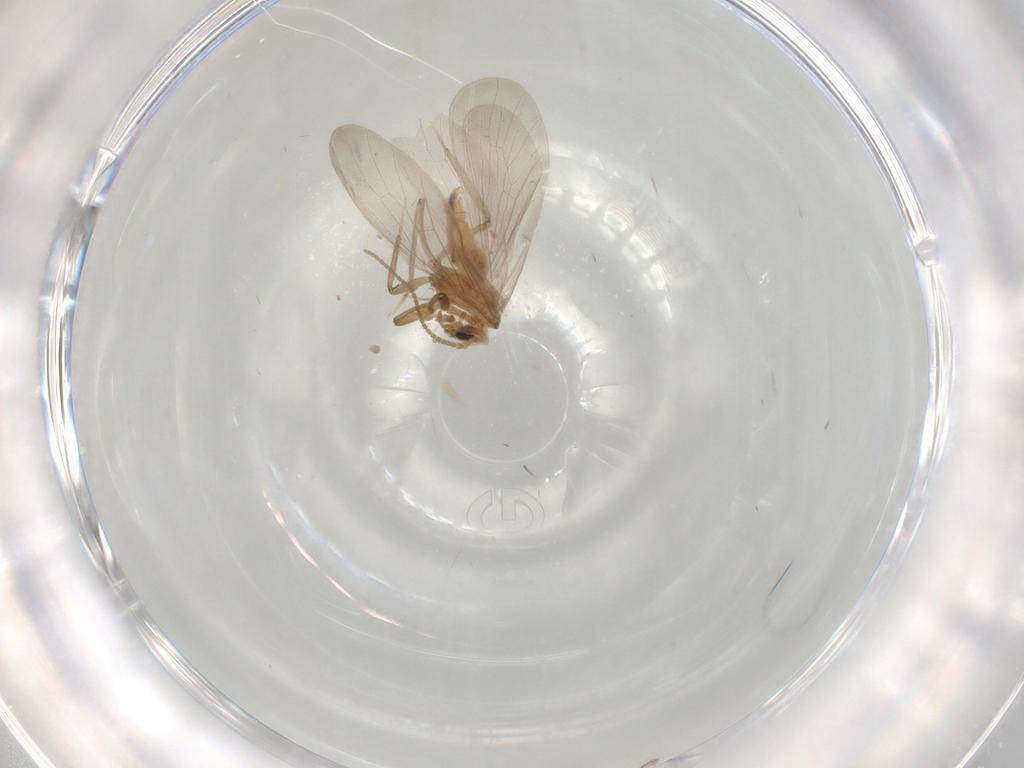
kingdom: Animalia
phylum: Arthropoda
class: Insecta
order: Neuroptera
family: Coniopterygidae
